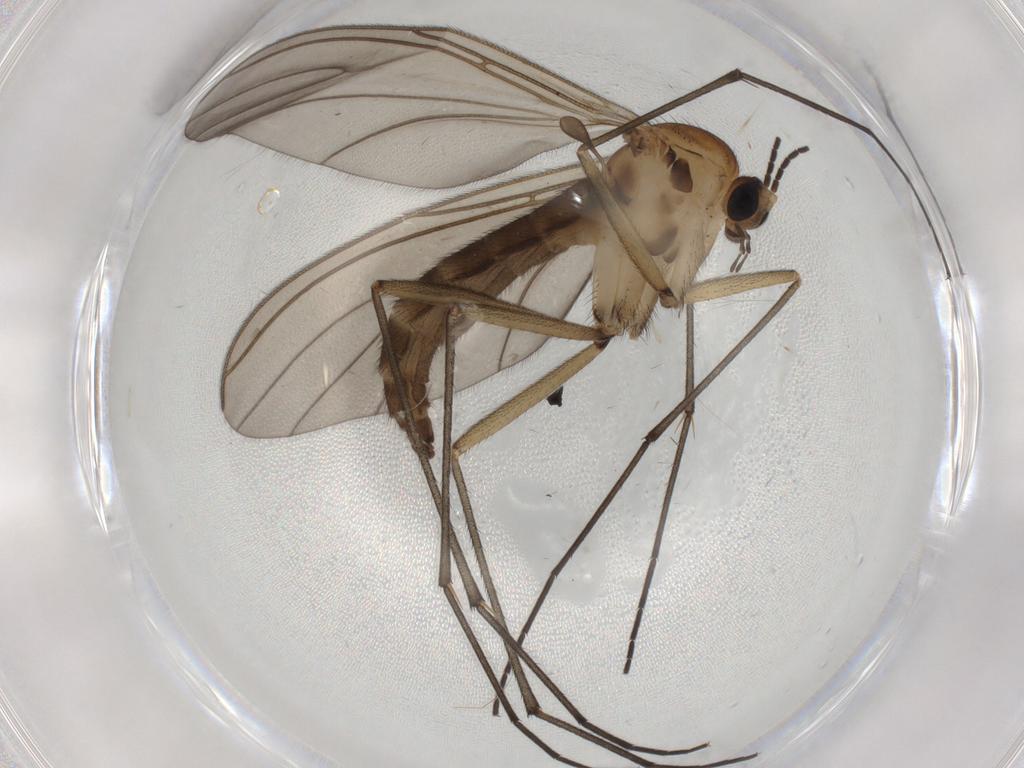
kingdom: Animalia
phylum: Arthropoda
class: Insecta
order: Diptera
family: Sciaridae
